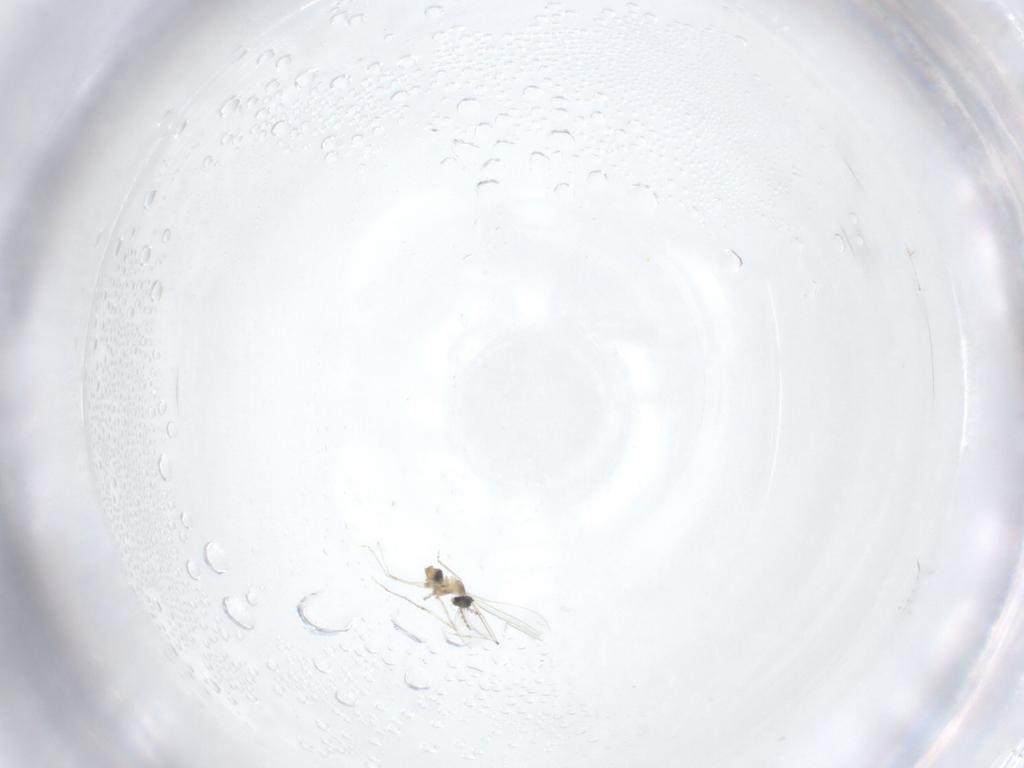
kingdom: Animalia
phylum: Arthropoda
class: Insecta
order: Diptera
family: Cecidomyiidae
